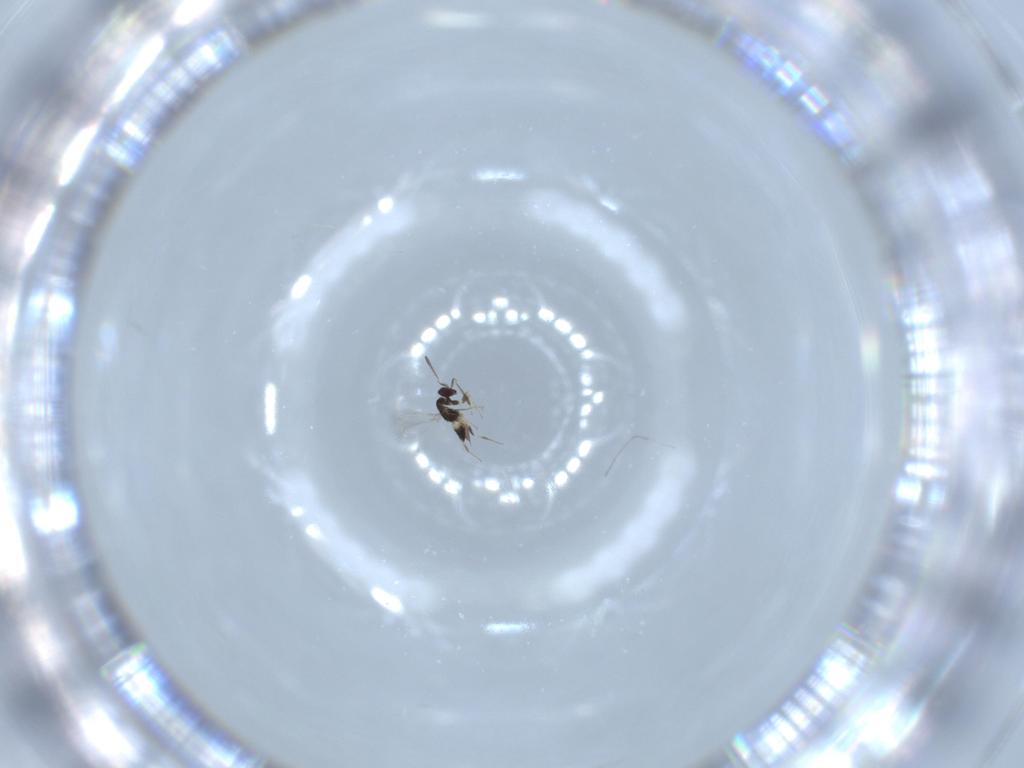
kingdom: Animalia
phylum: Arthropoda
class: Insecta
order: Hymenoptera
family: Mymaridae
